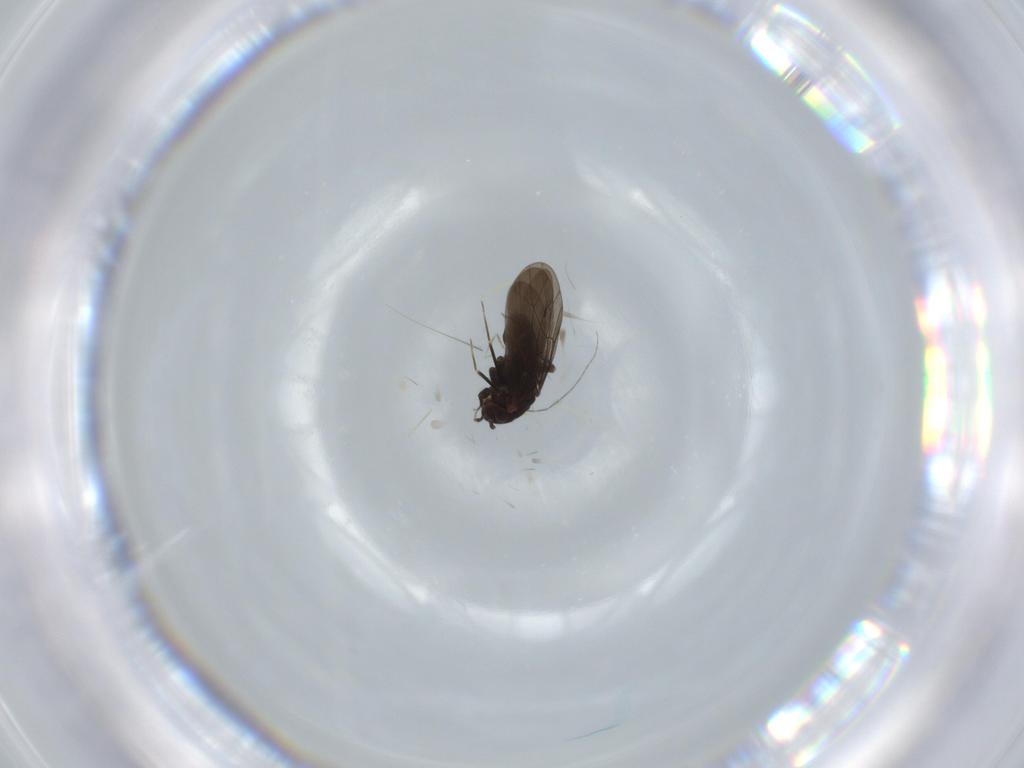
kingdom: Animalia
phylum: Arthropoda
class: Insecta
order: Psocodea
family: Lepidopsocidae
